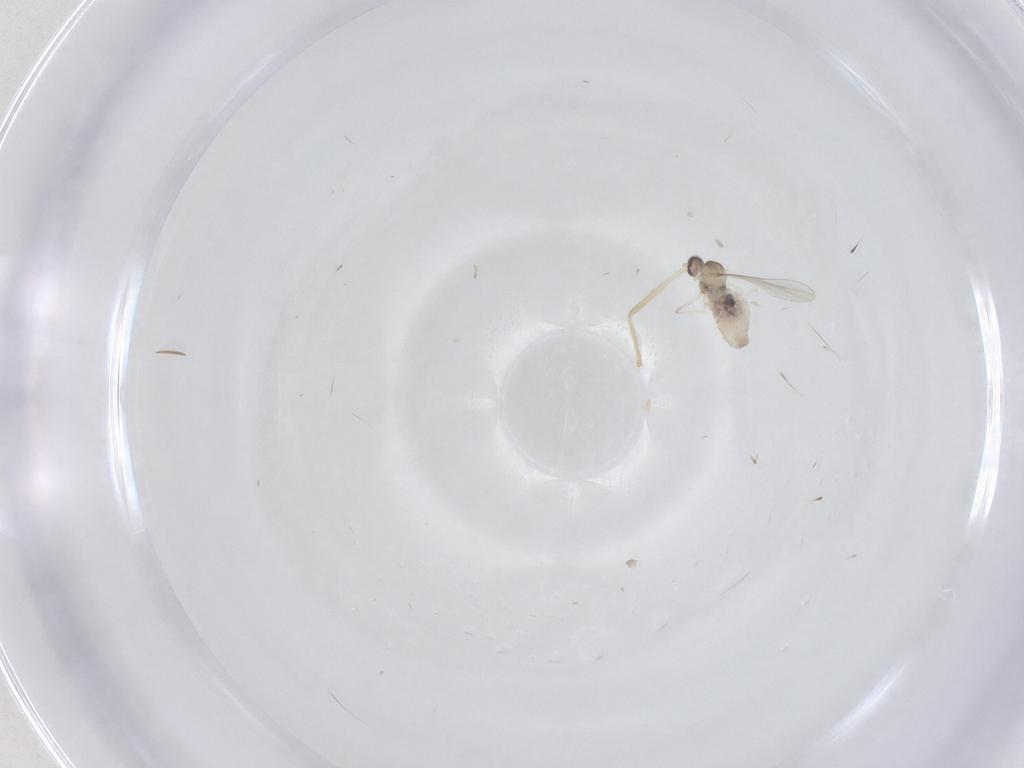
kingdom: Animalia
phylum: Arthropoda
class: Insecta
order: Diptera
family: Cecidomyiidae
